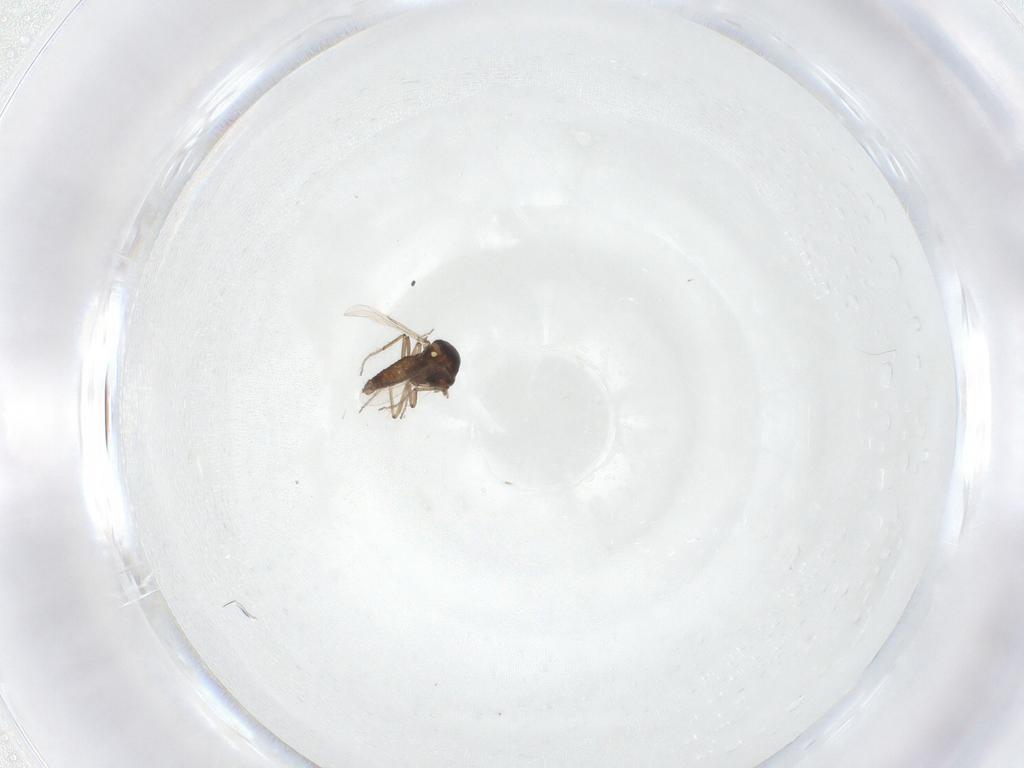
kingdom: Animalia
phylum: Arthropoda
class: Insecta
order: Diptera
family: Ceratopogonidae
